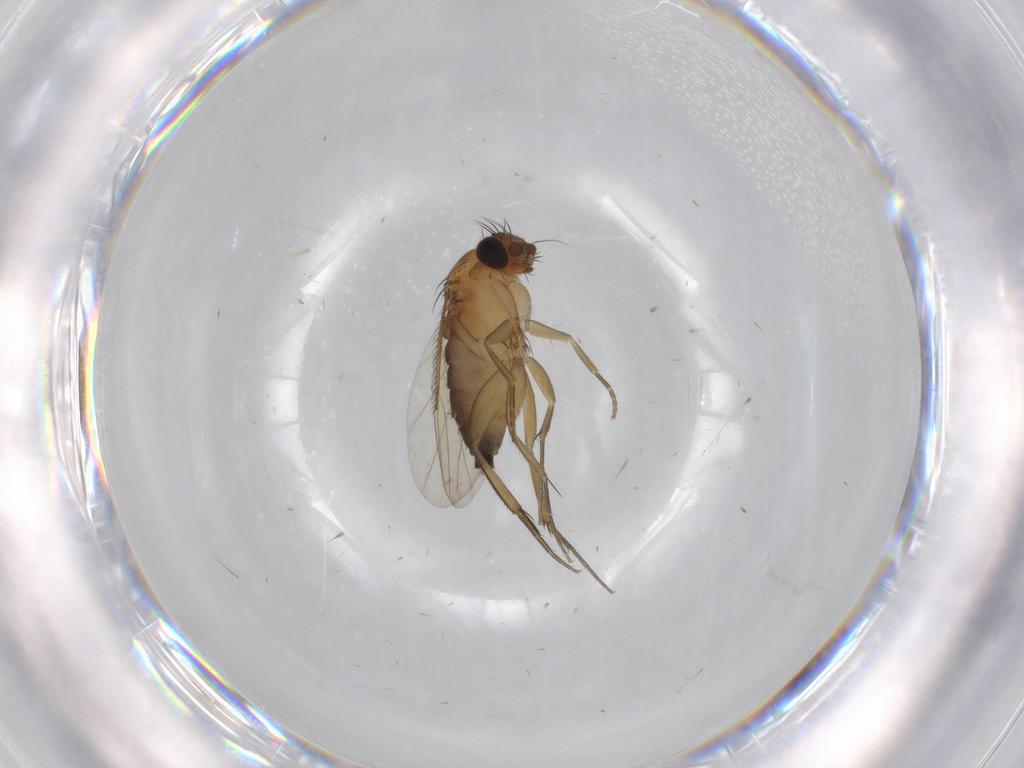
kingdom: Animalia
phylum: Arthropoda
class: Insecta
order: Diptera
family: Phoridae
